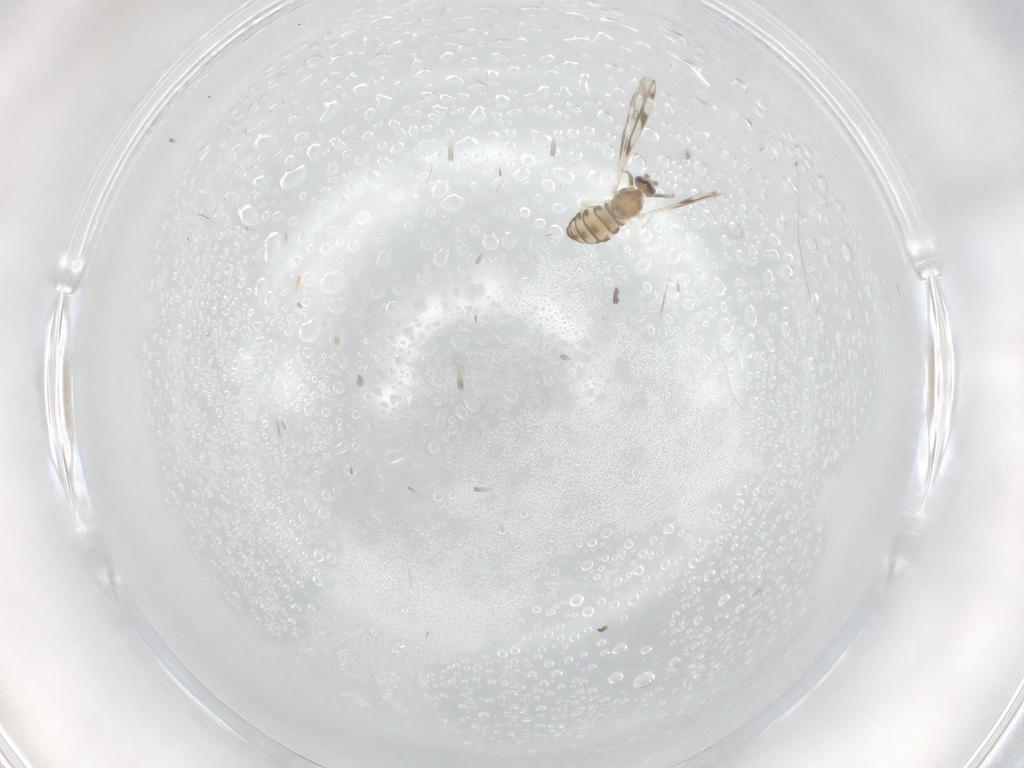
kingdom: Animalia
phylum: Arthropoda
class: Insecta
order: Diptera
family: Cecidomyiidae
